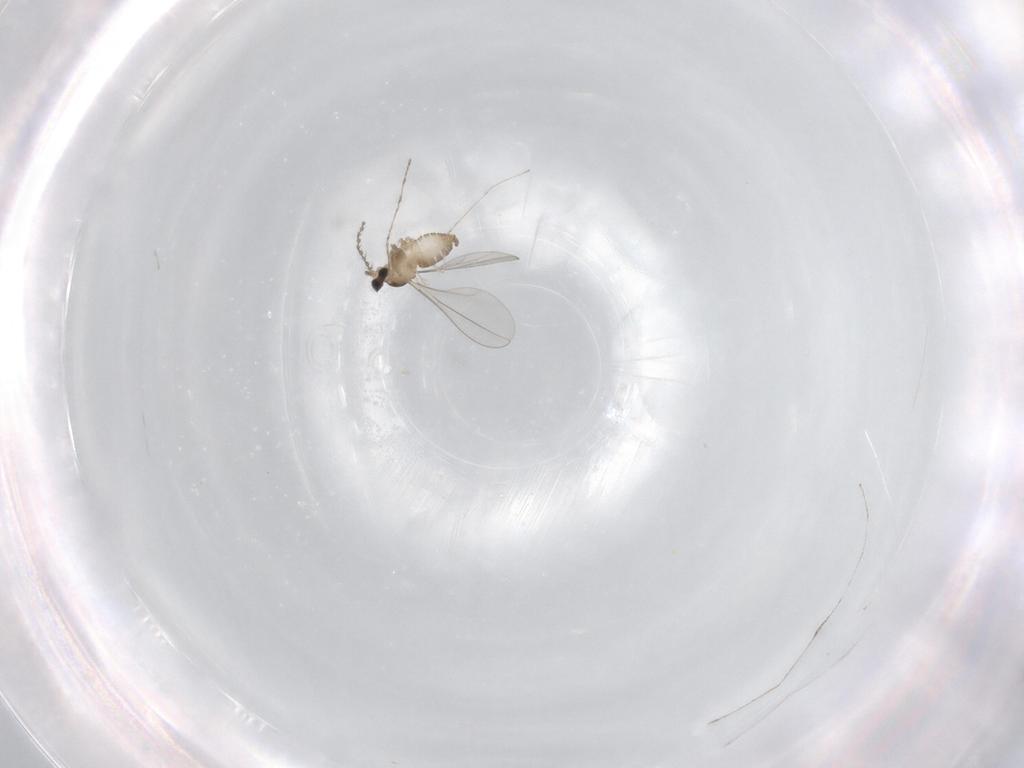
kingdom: Animalia
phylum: Arthropoda
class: Insecta
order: Diptera
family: Cecidomyiidae
